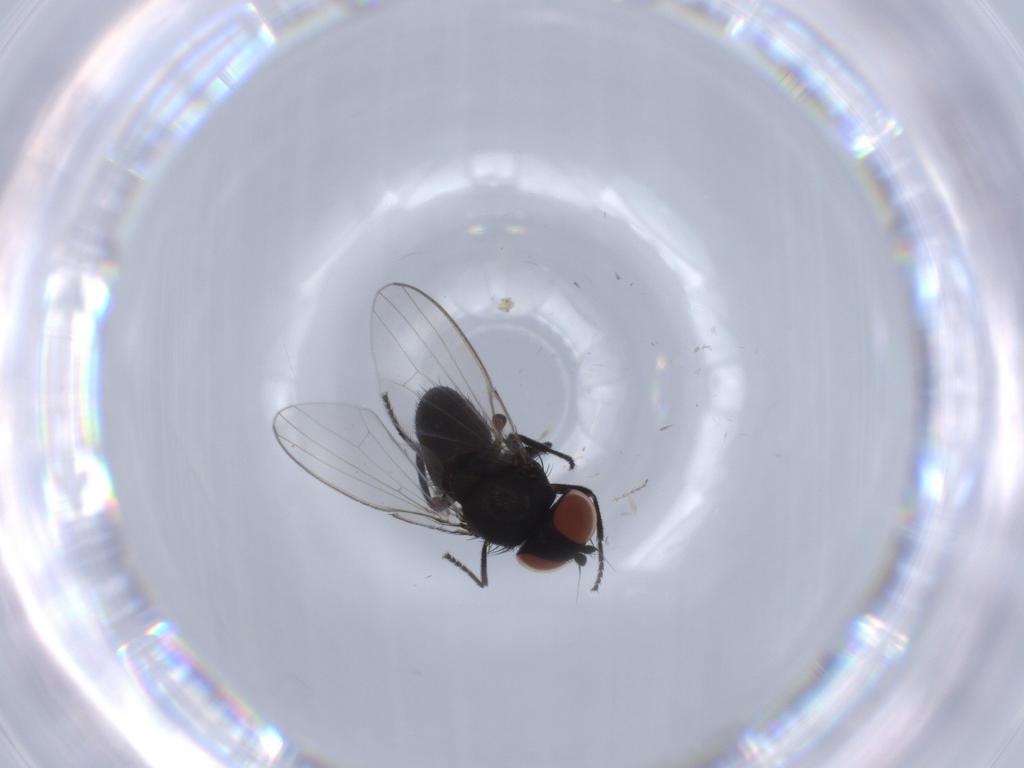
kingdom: Animalia
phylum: Arthropoda
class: Insecta
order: Diptera
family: Milichiidae
